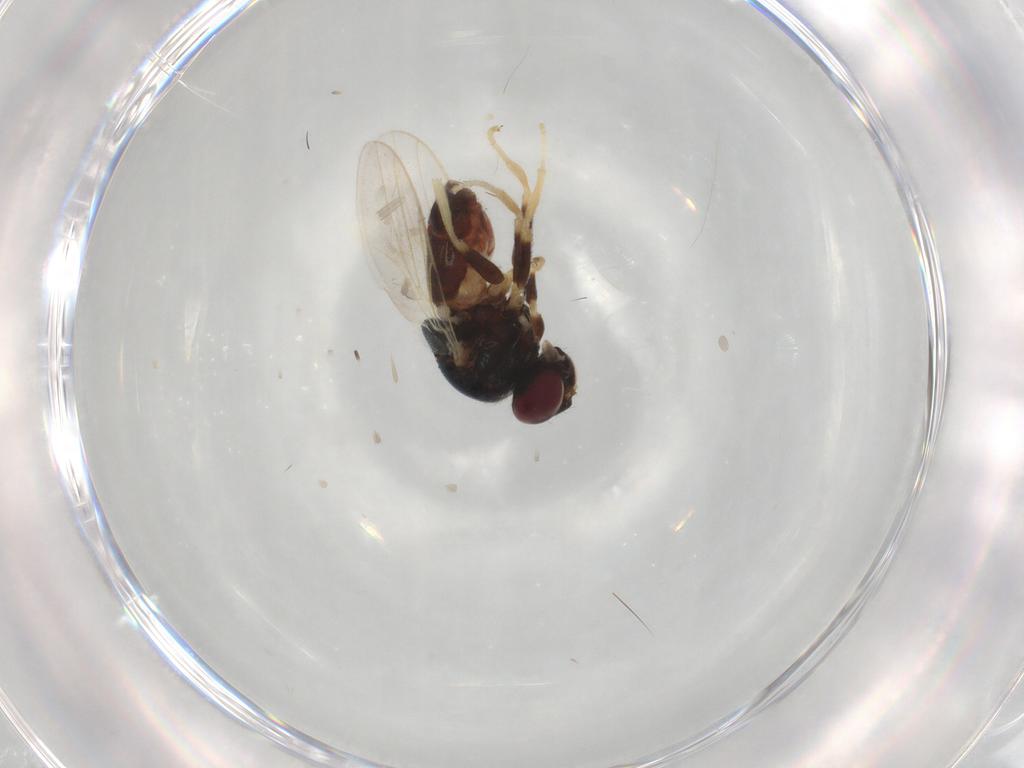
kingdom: Animalia
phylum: Arthropoda
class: Insecta
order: Diptera
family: Chloropidae
